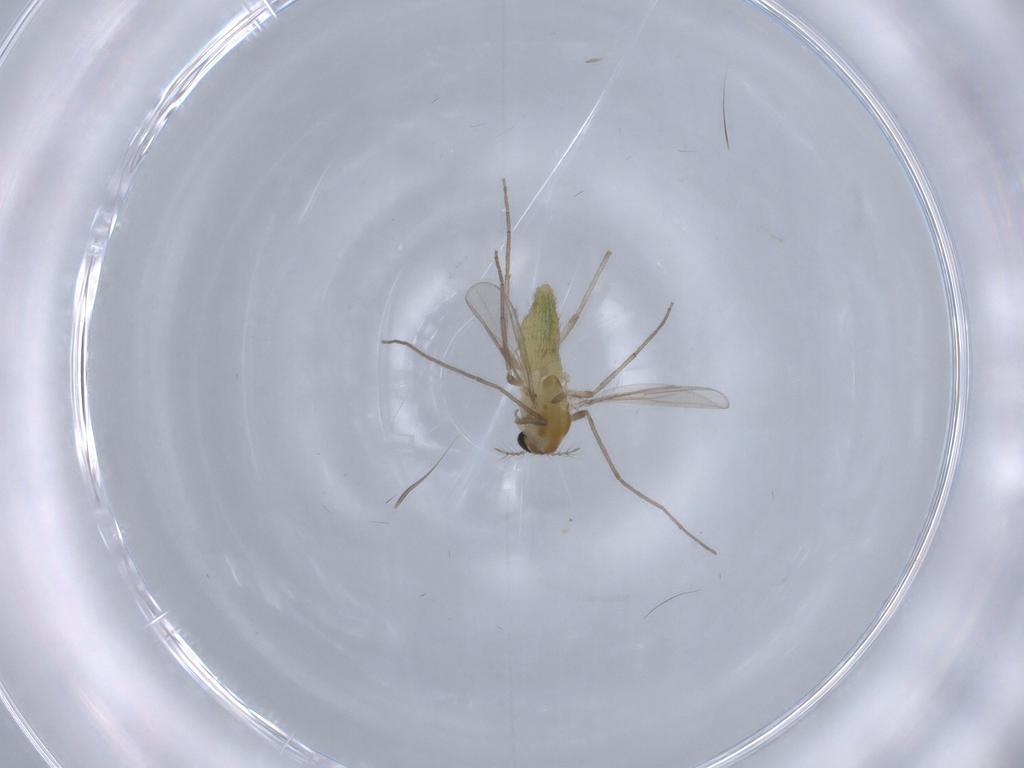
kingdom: Animalia
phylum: Arthropoda
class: Insecta
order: Diptera
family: Chironomidae
